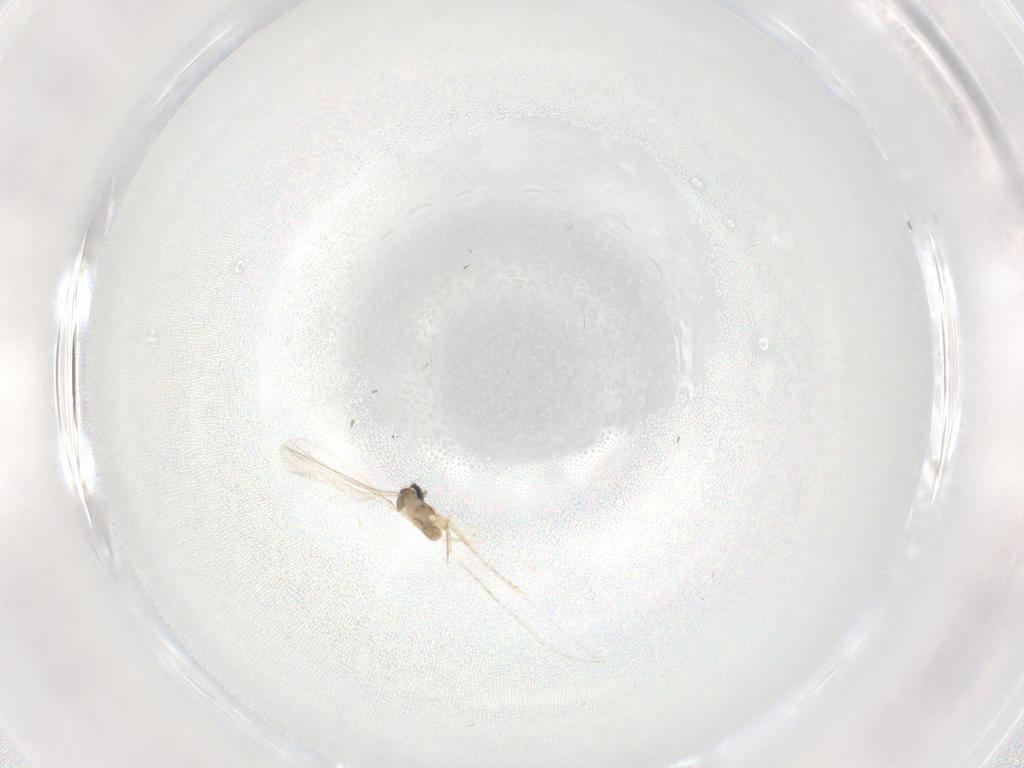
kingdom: Animalia
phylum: Arthropoda
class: Insecta
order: Diptera
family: Cecidomyiidae
